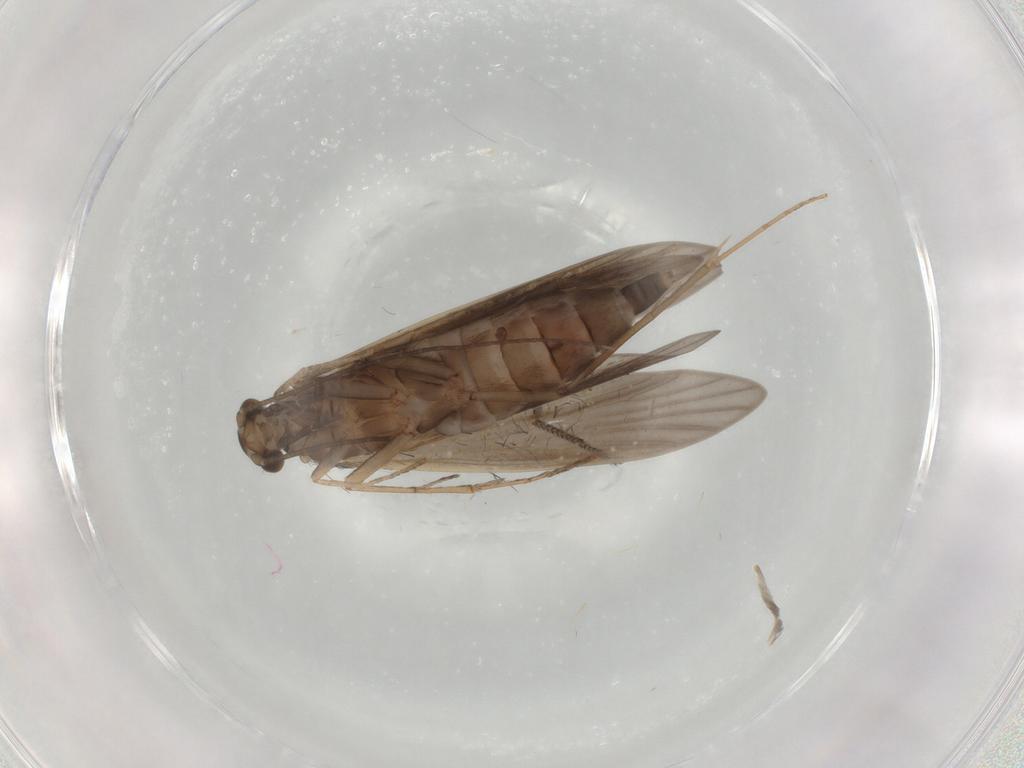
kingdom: Animalia
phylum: Arthropoda
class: Insecta
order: Trichoptera
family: Xiphocentronidae
